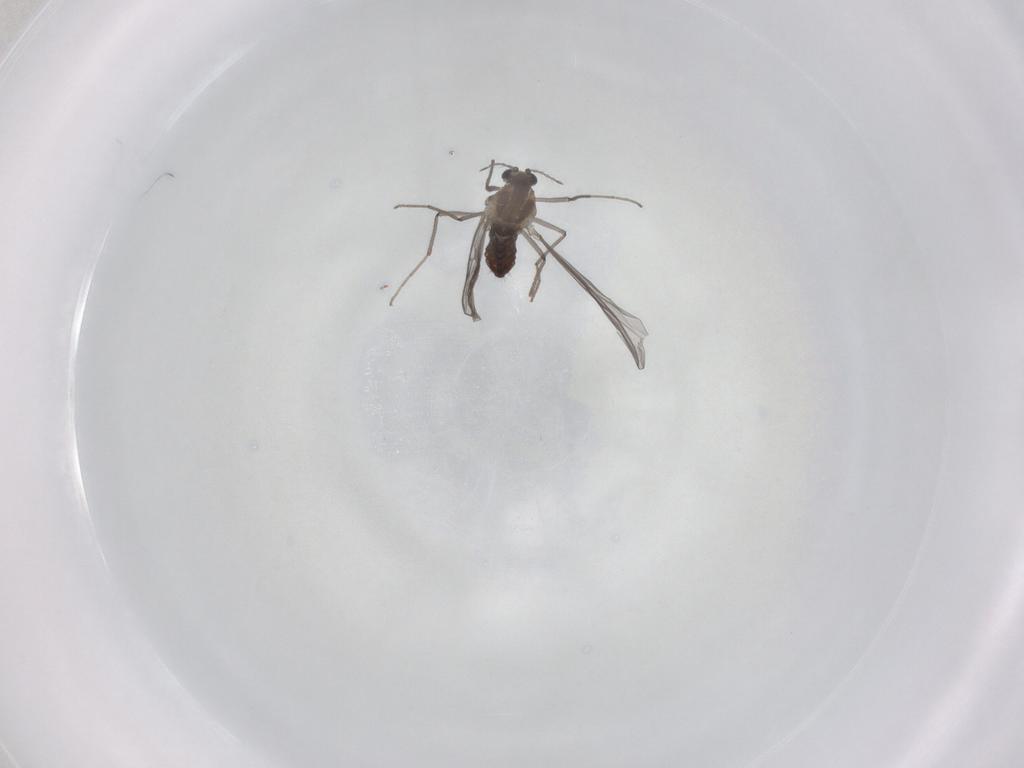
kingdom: Animalia
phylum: Arthropoda
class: Insecta
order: Diptera
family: Chironomidae
